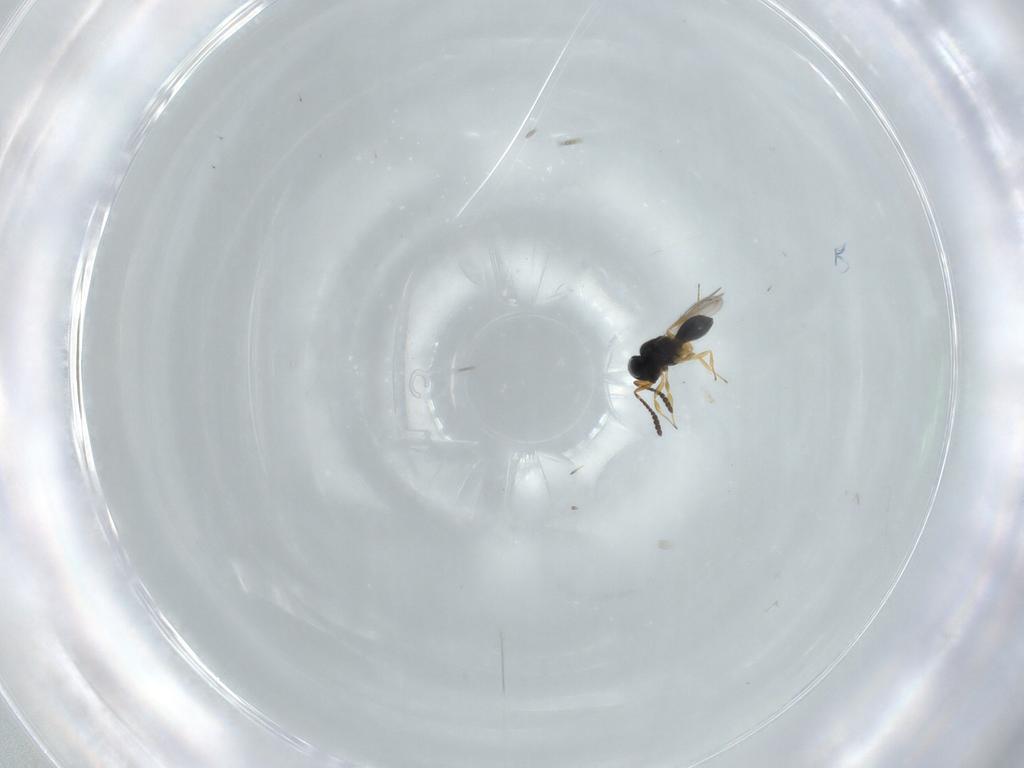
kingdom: Animalia
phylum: Arthropoda
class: Insecta
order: Hymenoptera
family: Scelionidae
